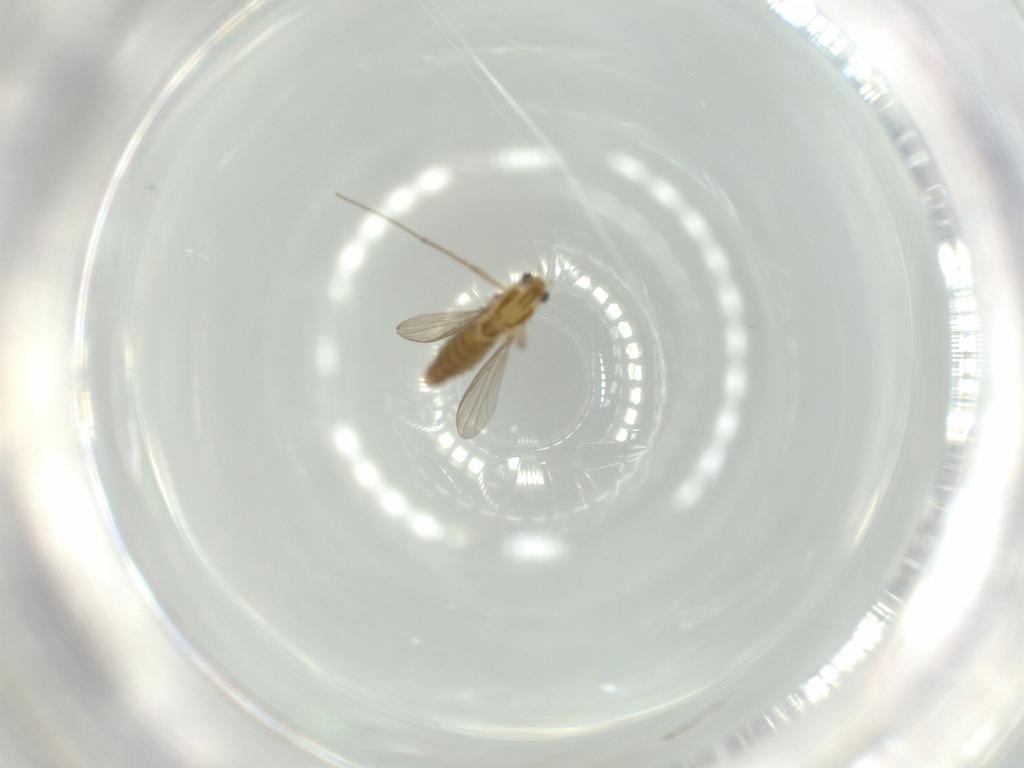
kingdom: Animalia
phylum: Arthropoda
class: Insecta
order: Diptera
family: Chironomidae
